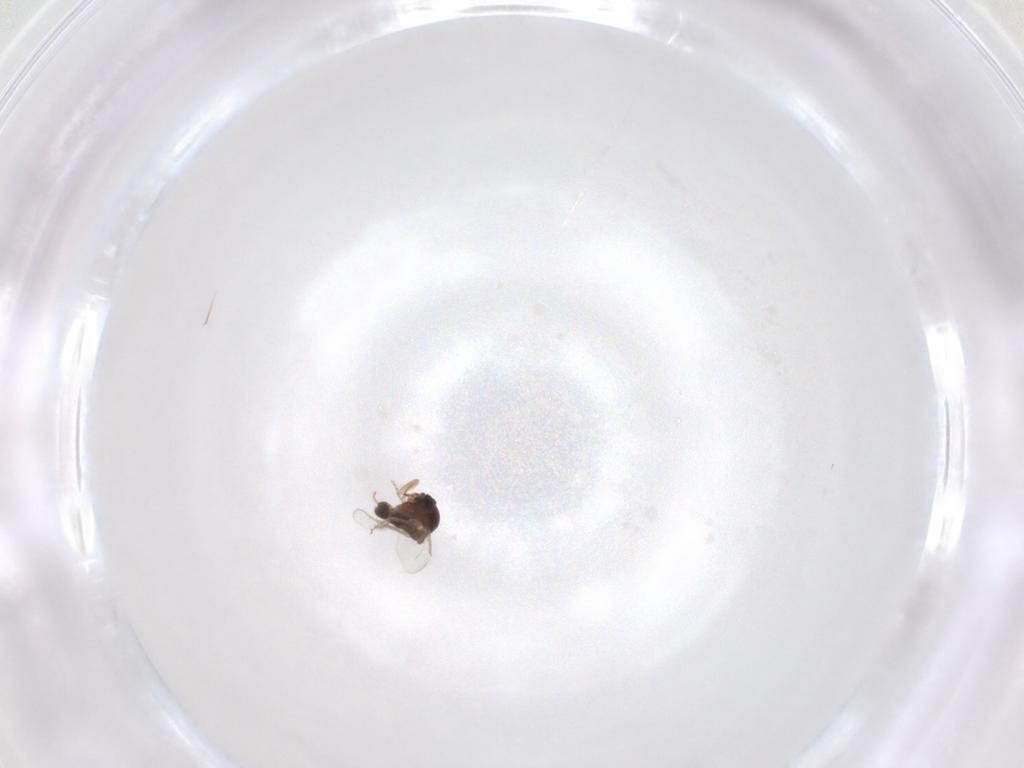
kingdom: Animalia
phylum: Arthropoda
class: Insecta
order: Diptera
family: Ceratopogonidae
